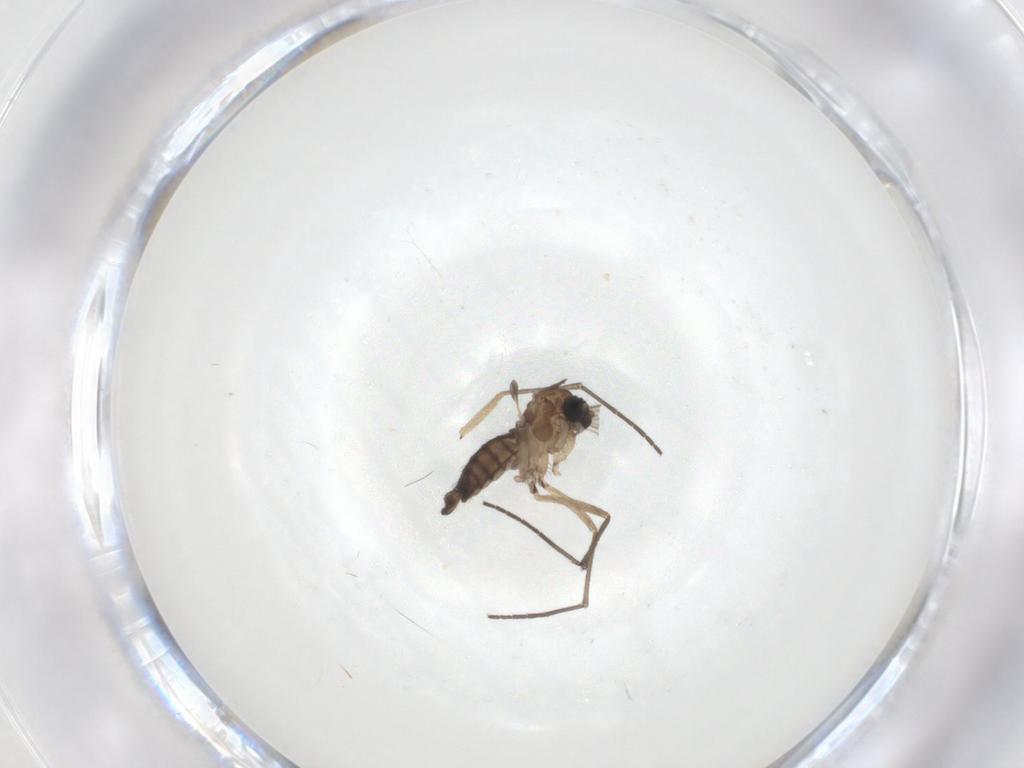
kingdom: Animalia
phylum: Arthropoda
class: Insecta
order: Diptera
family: Sciaridae
